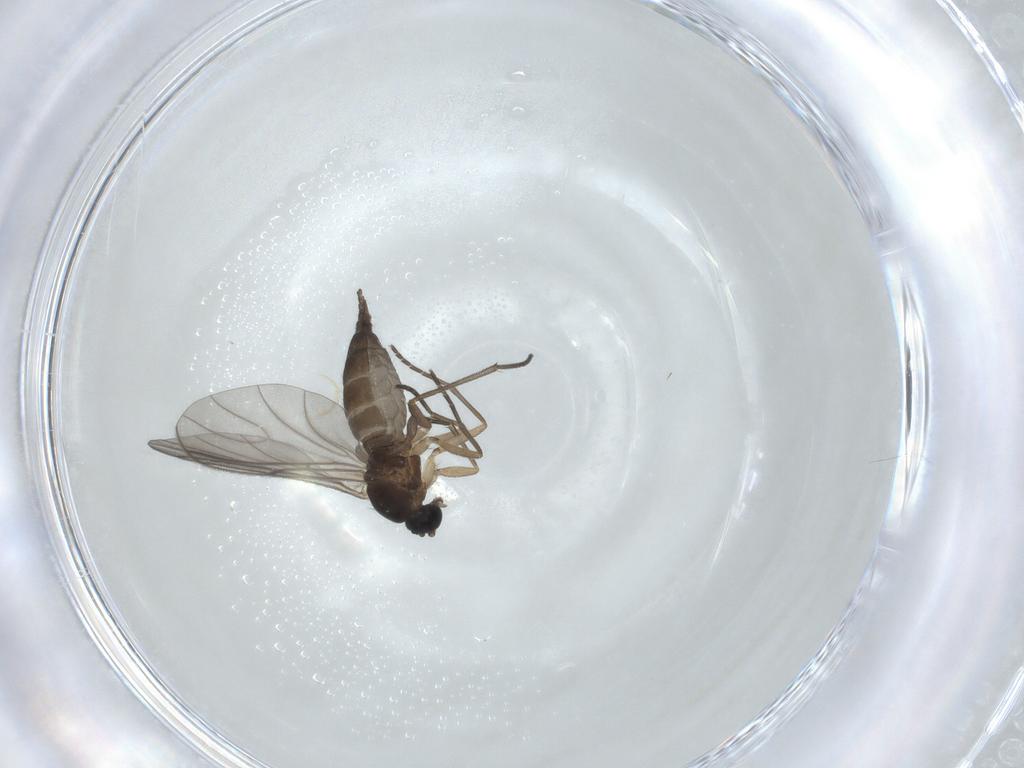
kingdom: Animalia
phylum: Arthropoda
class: Insecta
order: Diptera
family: Sciaridae
